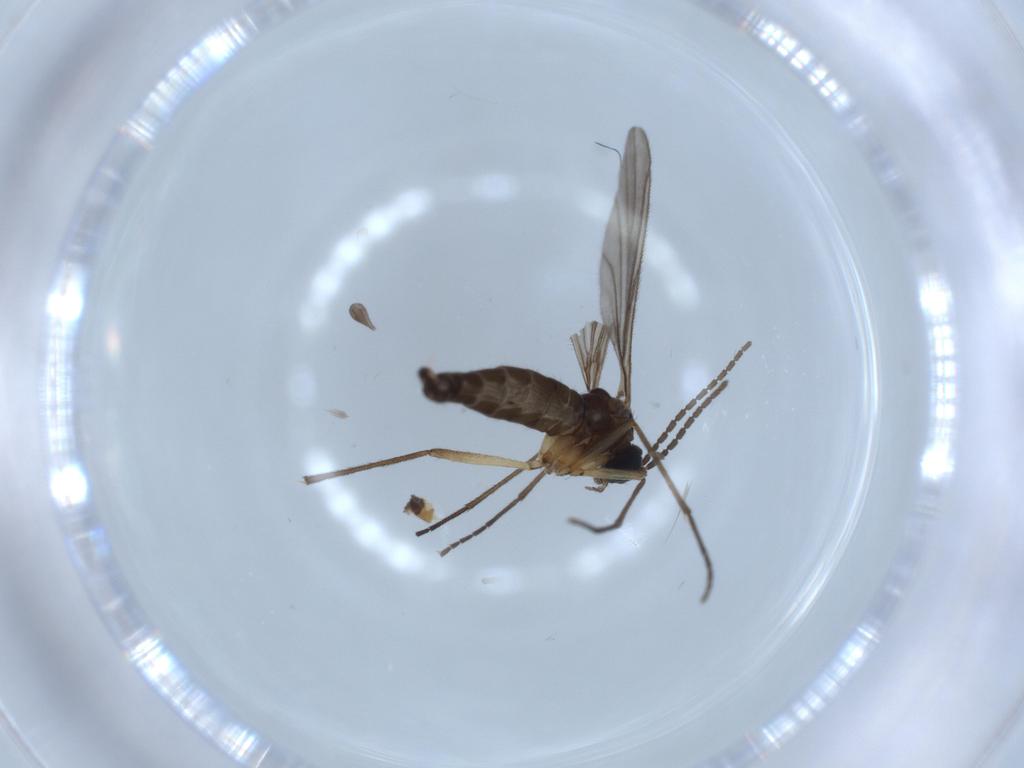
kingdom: Animalia
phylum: Arthropoda
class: Insecta
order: Diptera
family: Sciaridae
